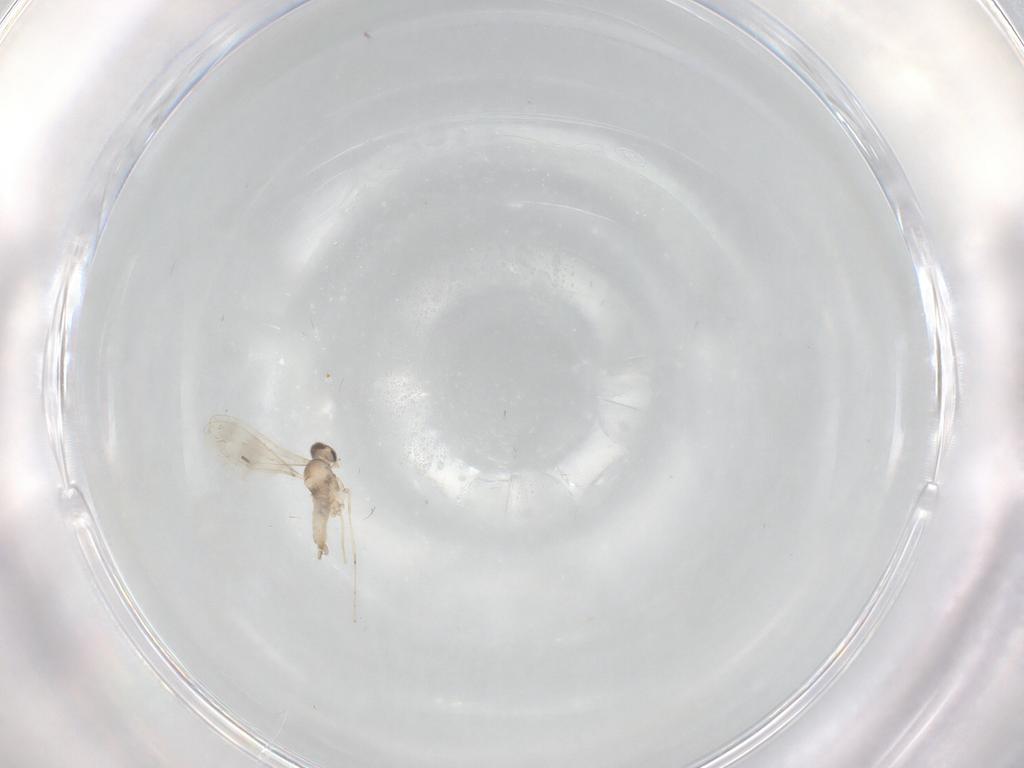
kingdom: Animalia
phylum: Arthropoda
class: Insecta
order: Diptera
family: Cecidomyiidae
